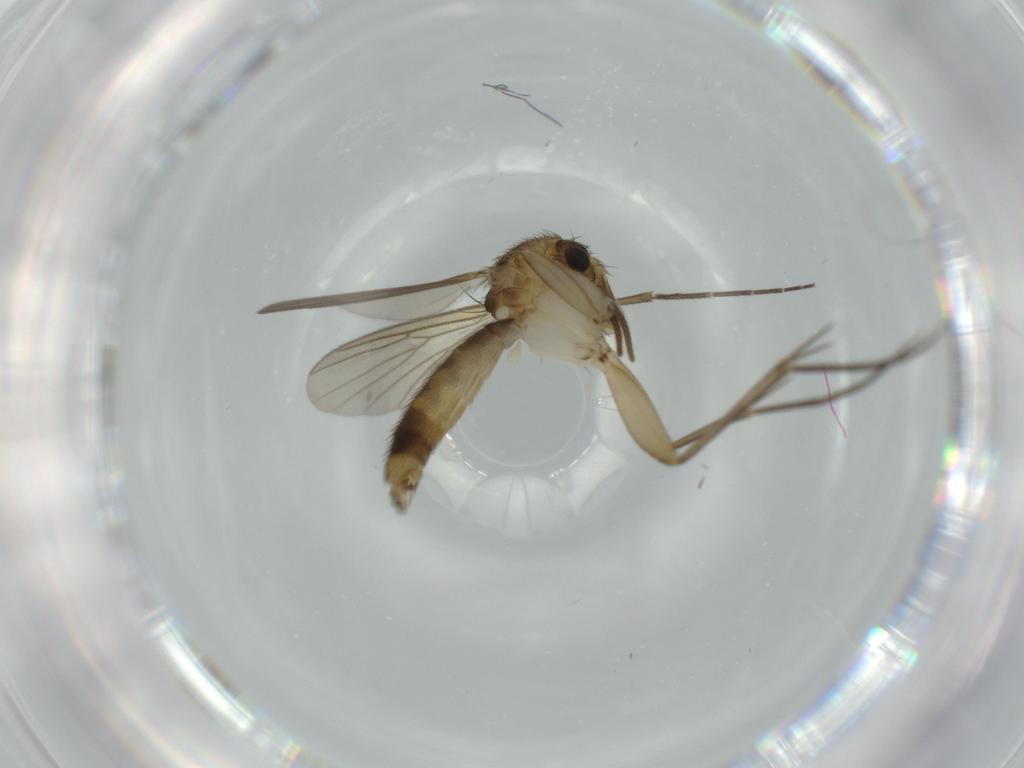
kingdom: Animalia
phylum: Arthropoda
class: Insecta
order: Diptera
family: Mycetophilidae
